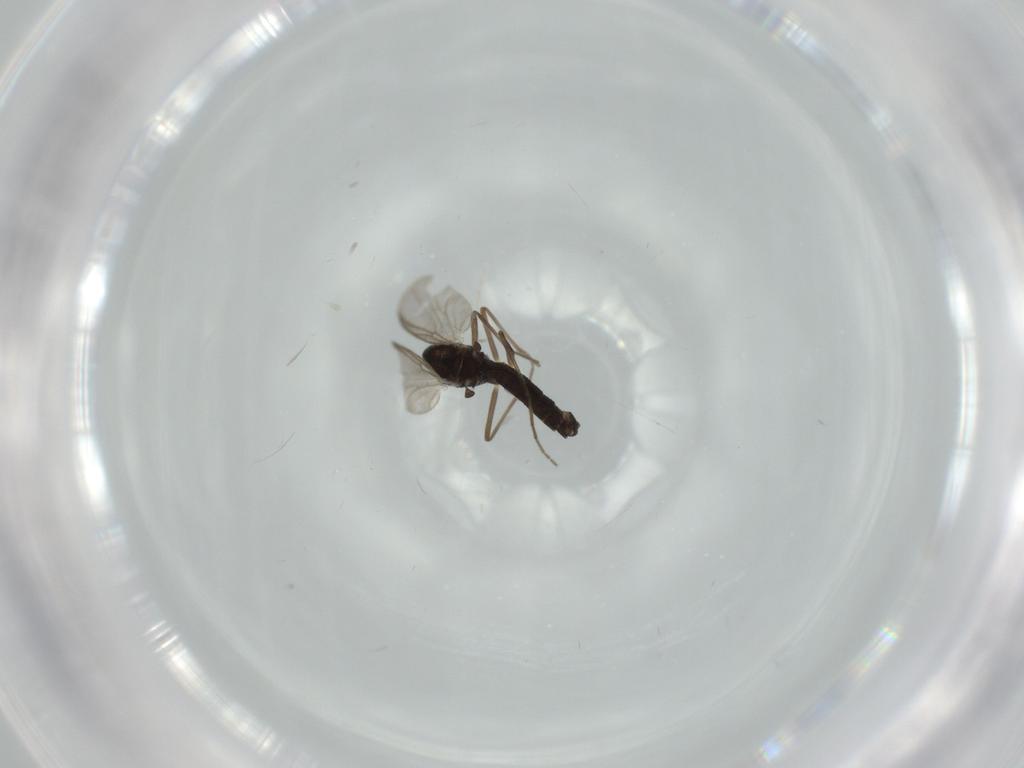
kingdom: Animalia
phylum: Arthropoda
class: Insecta
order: Diptera
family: Chironomidae
